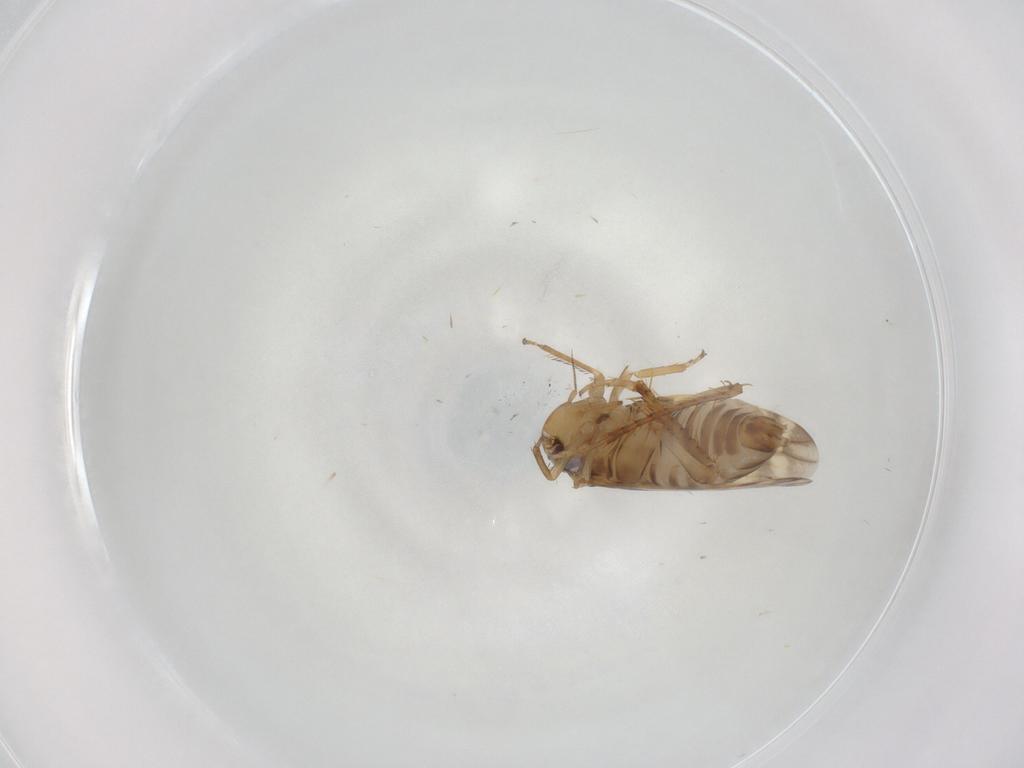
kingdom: Animalia
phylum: Arthropoda
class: Insecta
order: Hemiptera
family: Cicadellidae
